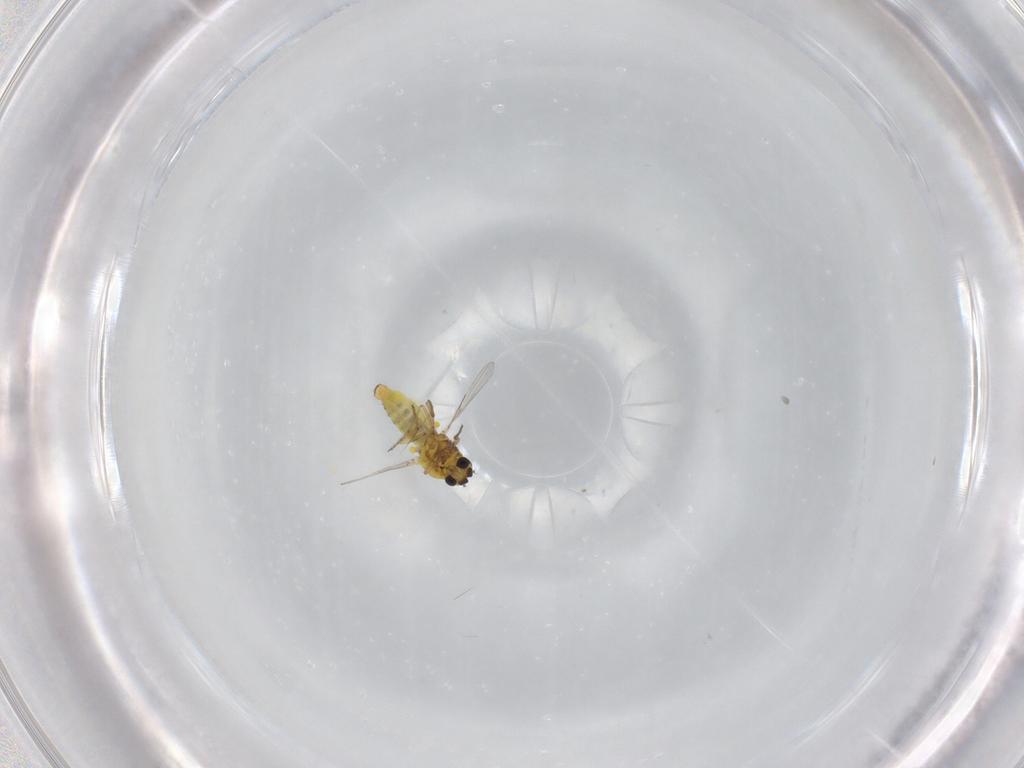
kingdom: Animalia
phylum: Arthropoda
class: Insecta
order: Diptera
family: Ceratopogonidae
